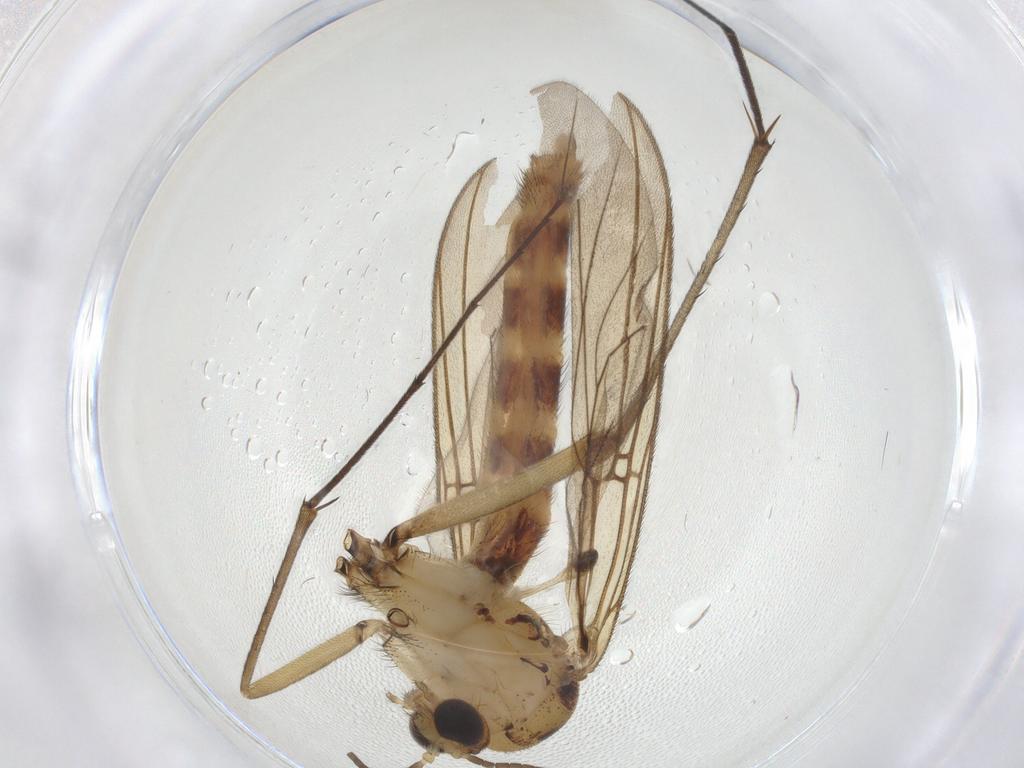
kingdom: Animalia
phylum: Arthropoda
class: Insecta
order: Diptera
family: Mycetophilidae
